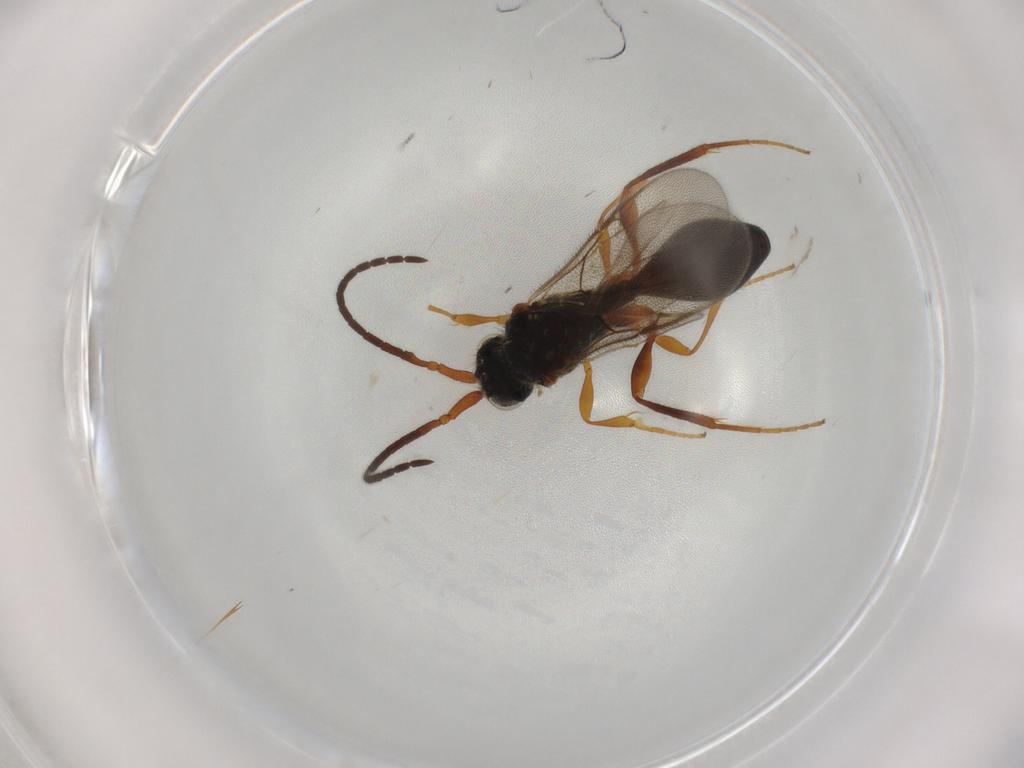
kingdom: Animalia
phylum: Arthropoda
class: Insecta
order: Hymenoptera
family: Diapriidae
